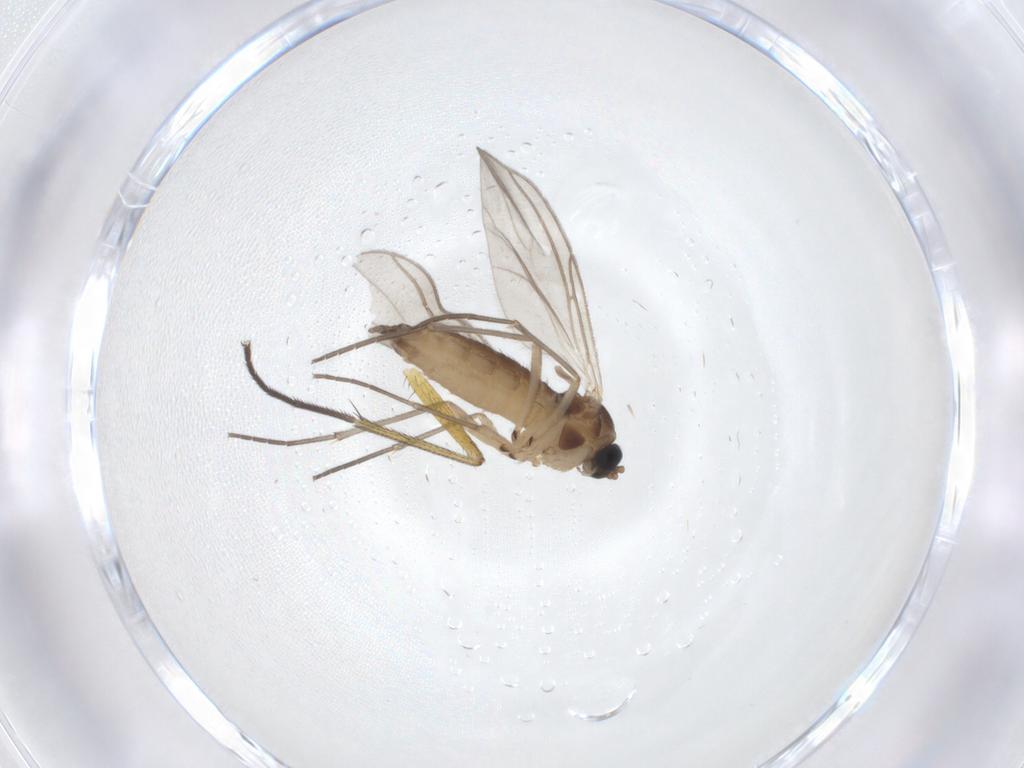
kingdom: Animalia
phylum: Arthropoda
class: Insecta
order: Diptera
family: Sciaridae
